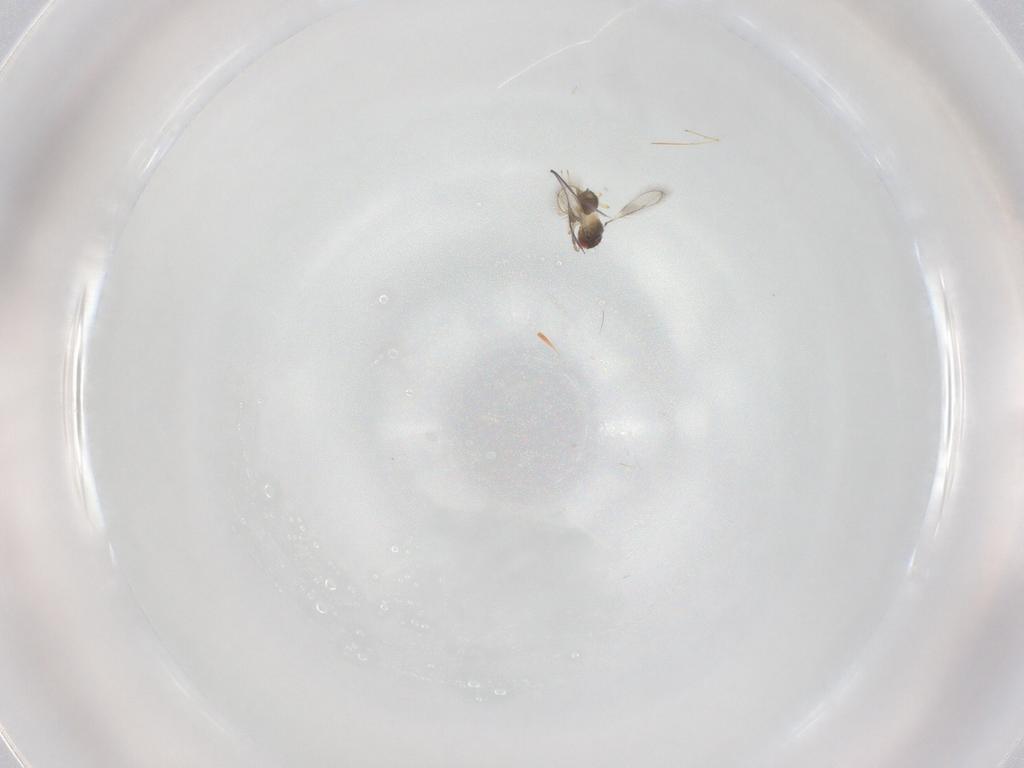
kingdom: Animalia
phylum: Arthropoda
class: Insecta
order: Hymenoptera
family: Eulophidae
